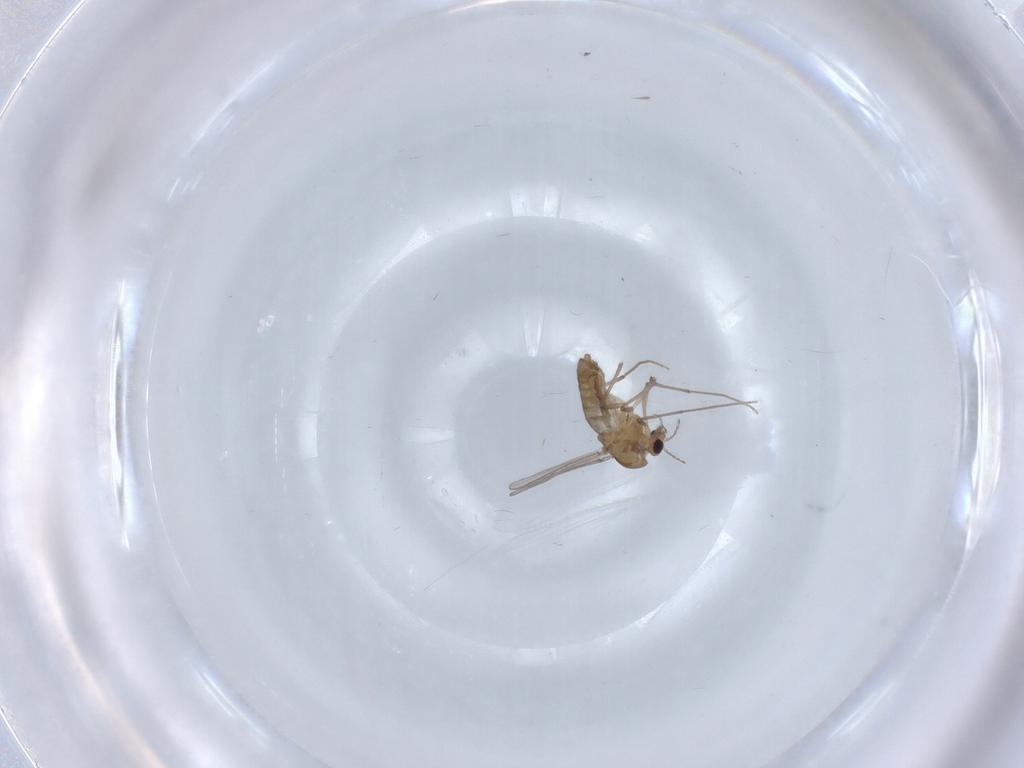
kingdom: Animalia
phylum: Arthropoda
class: Insecta
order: Diptera
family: Chironomidae
